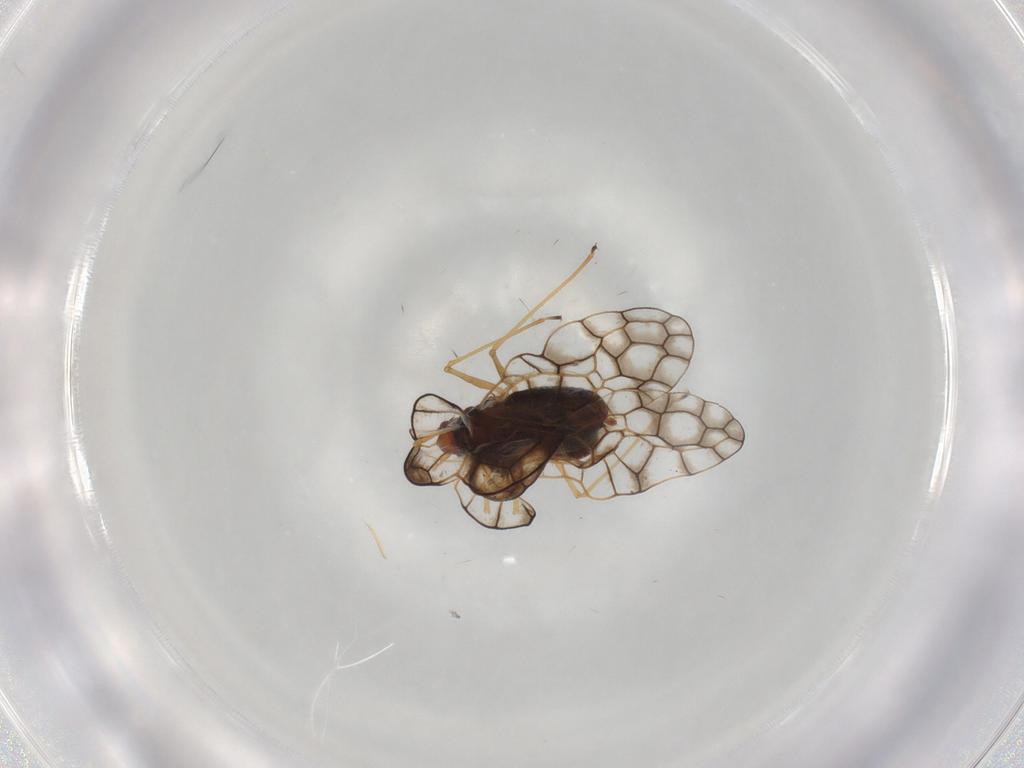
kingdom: Animalia
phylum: Arthropoda
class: Insecta
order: Hemiptera
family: Tingidae
